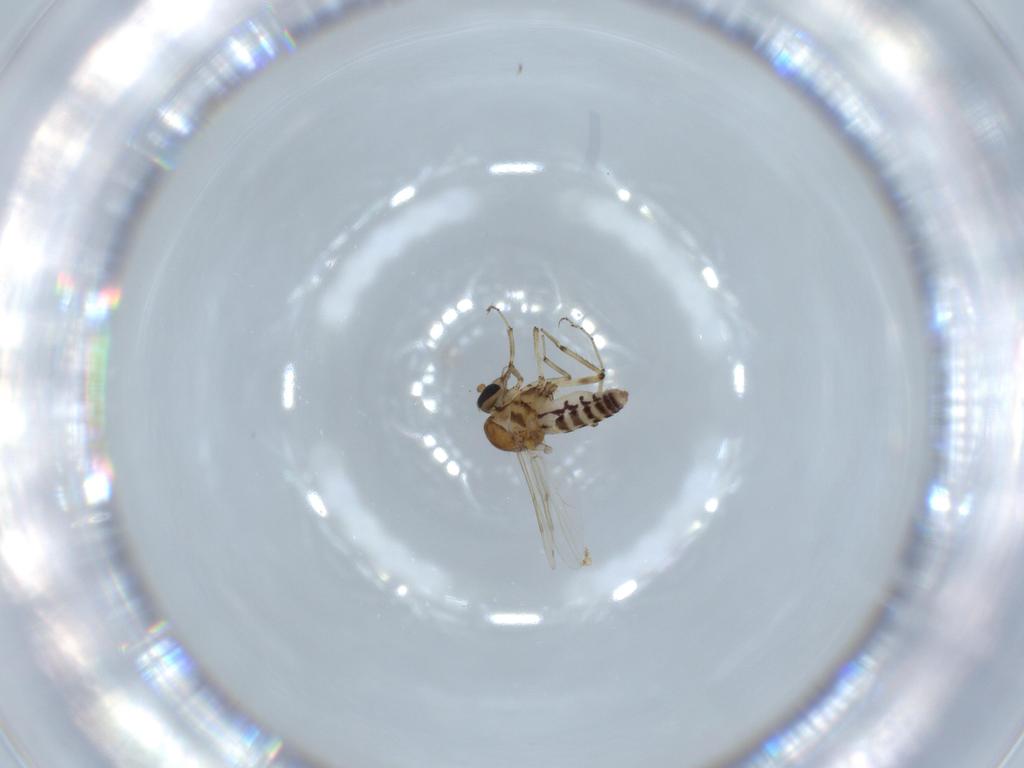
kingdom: Animalia
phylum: Arthropoda
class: Insecta
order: Diptera
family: Ceratopogonidae
